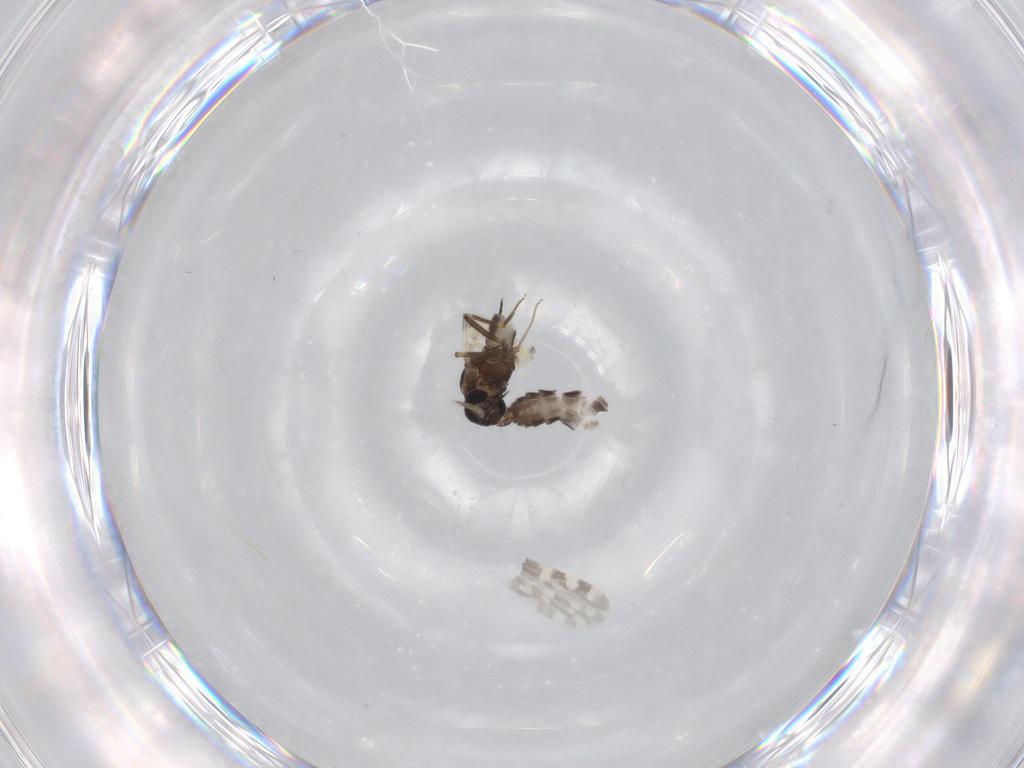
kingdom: Animalia
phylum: Arthropoda
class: Insecta
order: Diptera
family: Ceratopogonidae
